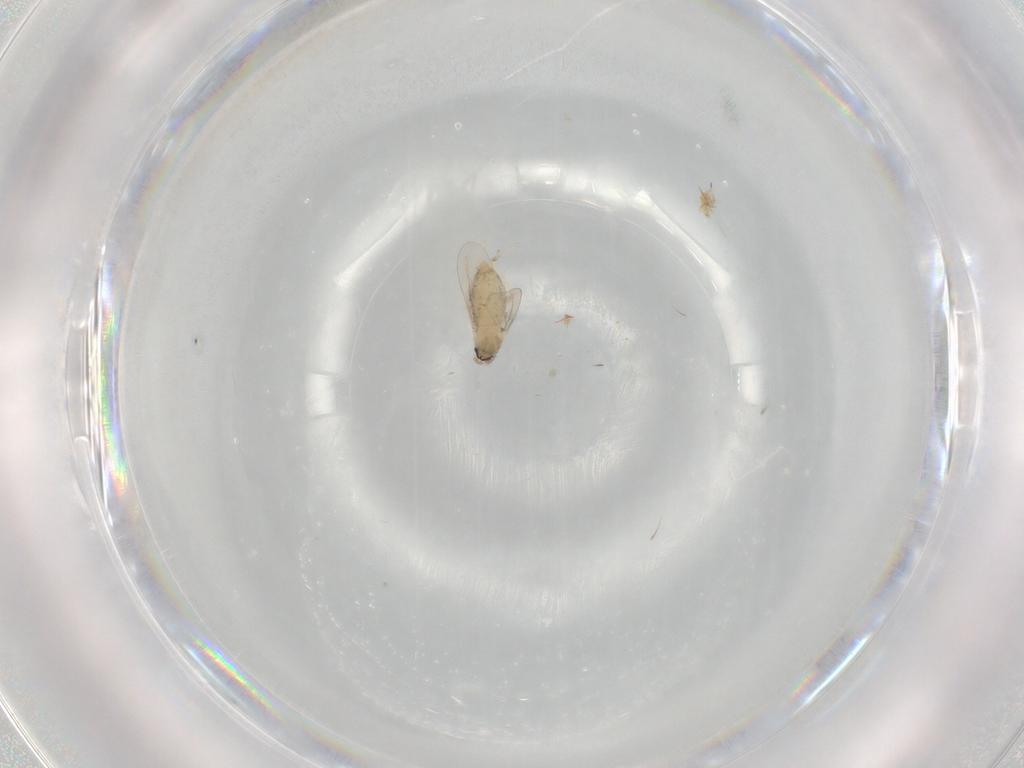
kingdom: Animalia
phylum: Arthropoda
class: Insecta
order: Diptera
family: Cecidomyiidae
